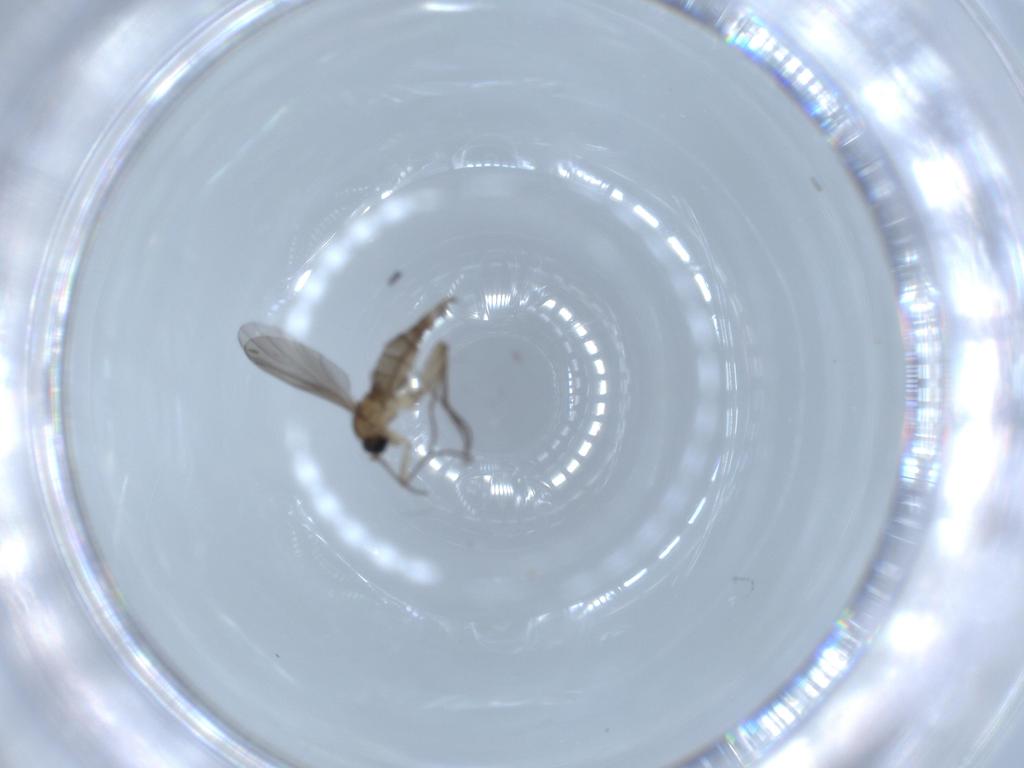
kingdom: Animalia
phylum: Arthropoda
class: Insecta
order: Diptera
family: Sciaridae
